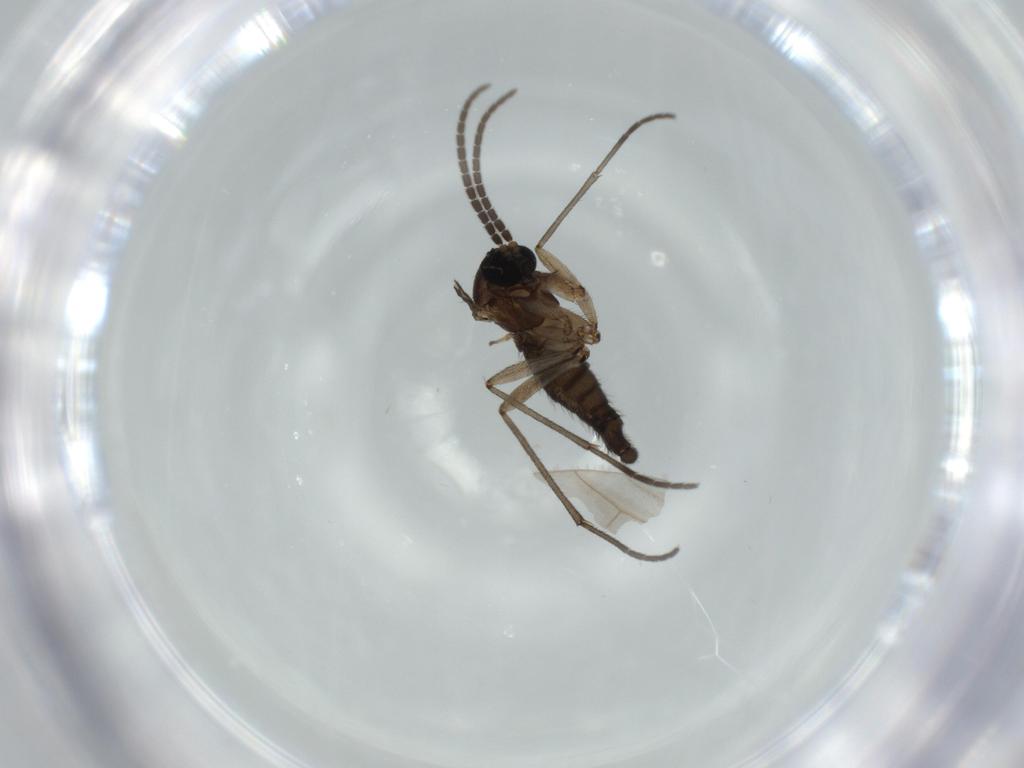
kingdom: Animalia
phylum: Arthropoda
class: Insecta
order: Diptera
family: Sciaridae
